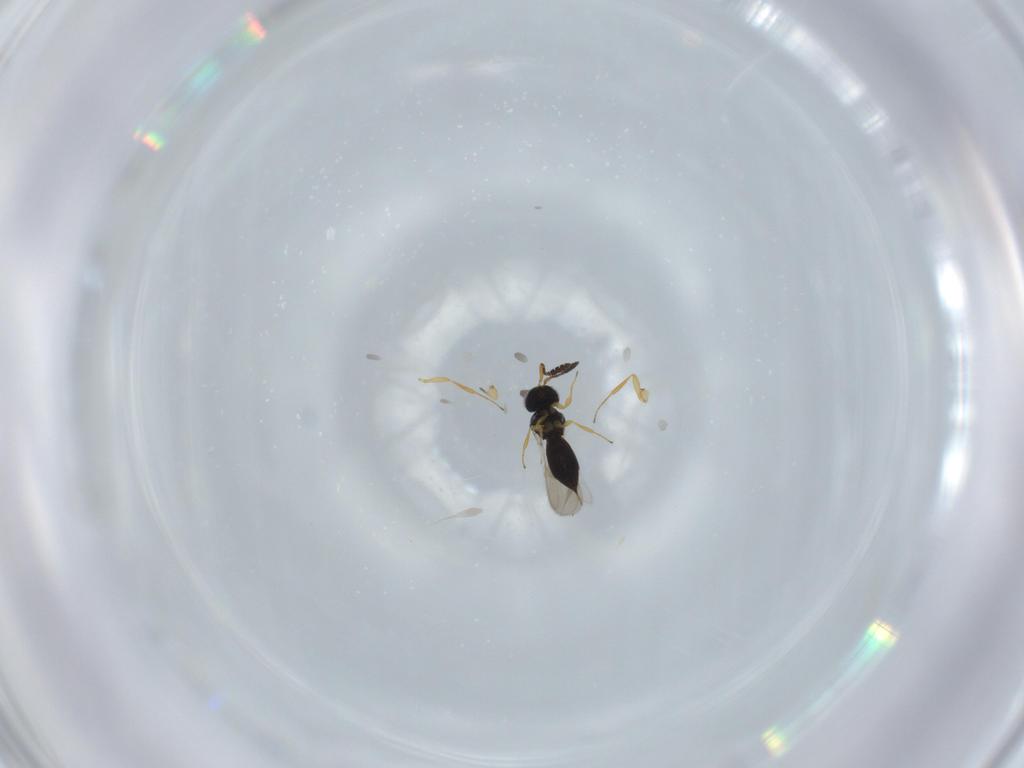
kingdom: Animalia
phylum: Arthropoda
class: Insecta
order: Hymenoptera
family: Scelionidae
